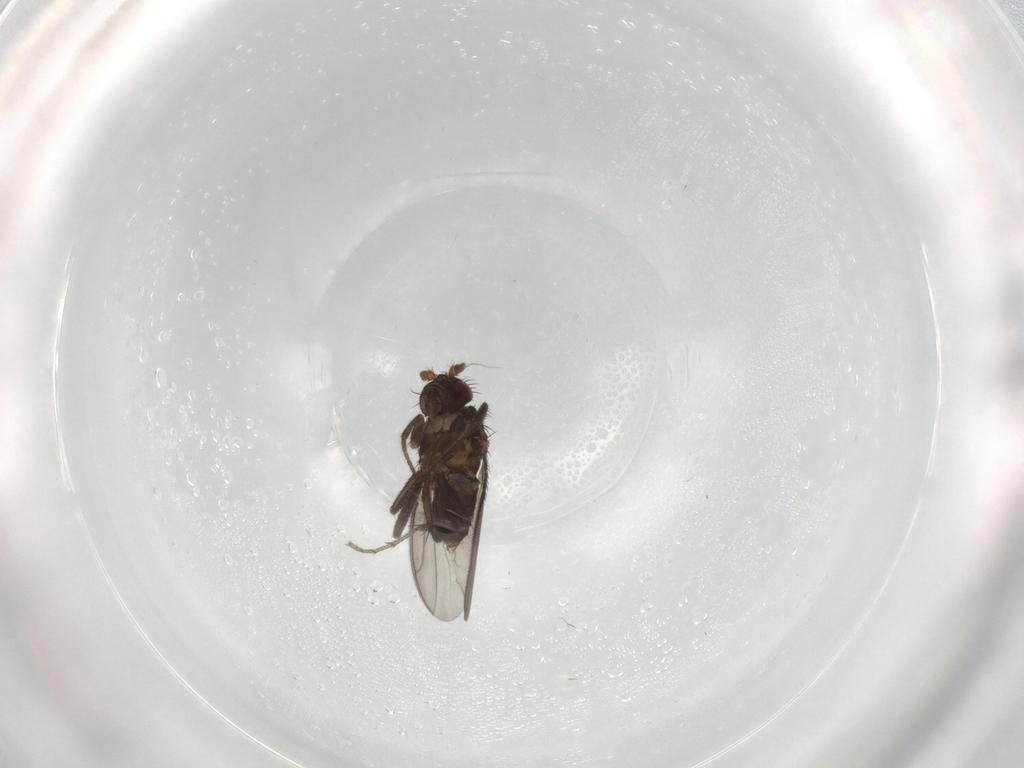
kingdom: Animalia
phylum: Arthropoda
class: Insecta
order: Diptera
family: Sphaeroceridae
